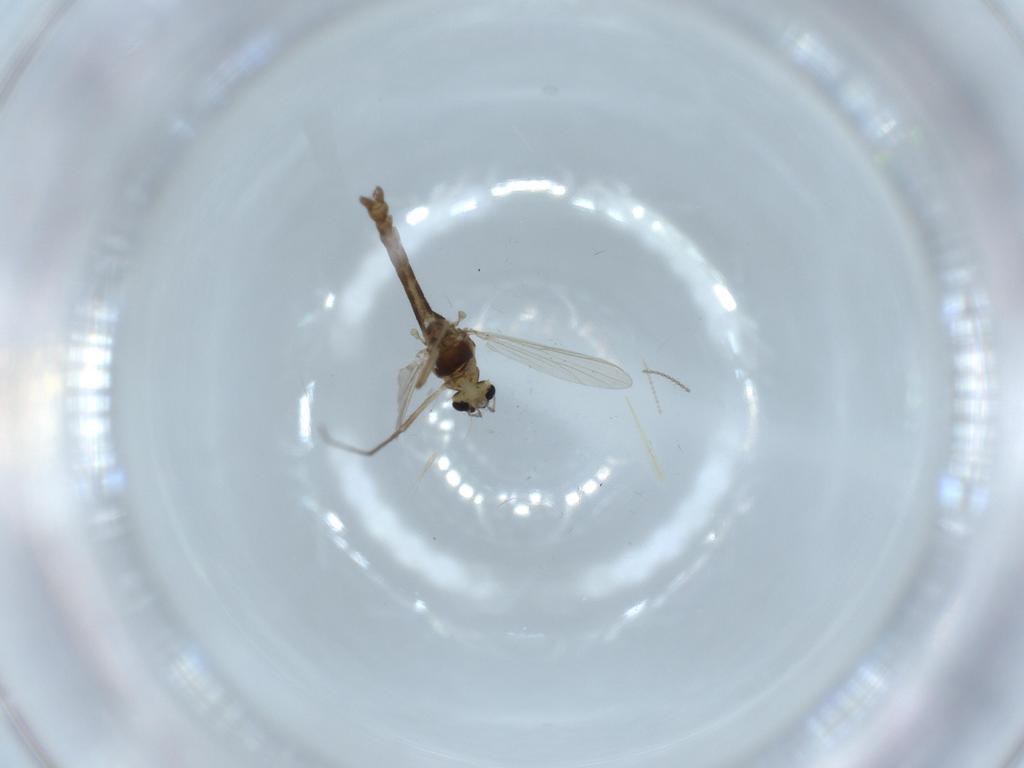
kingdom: Animalia
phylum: Arthropoda
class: Insecta
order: Diptera
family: Chironomidae
